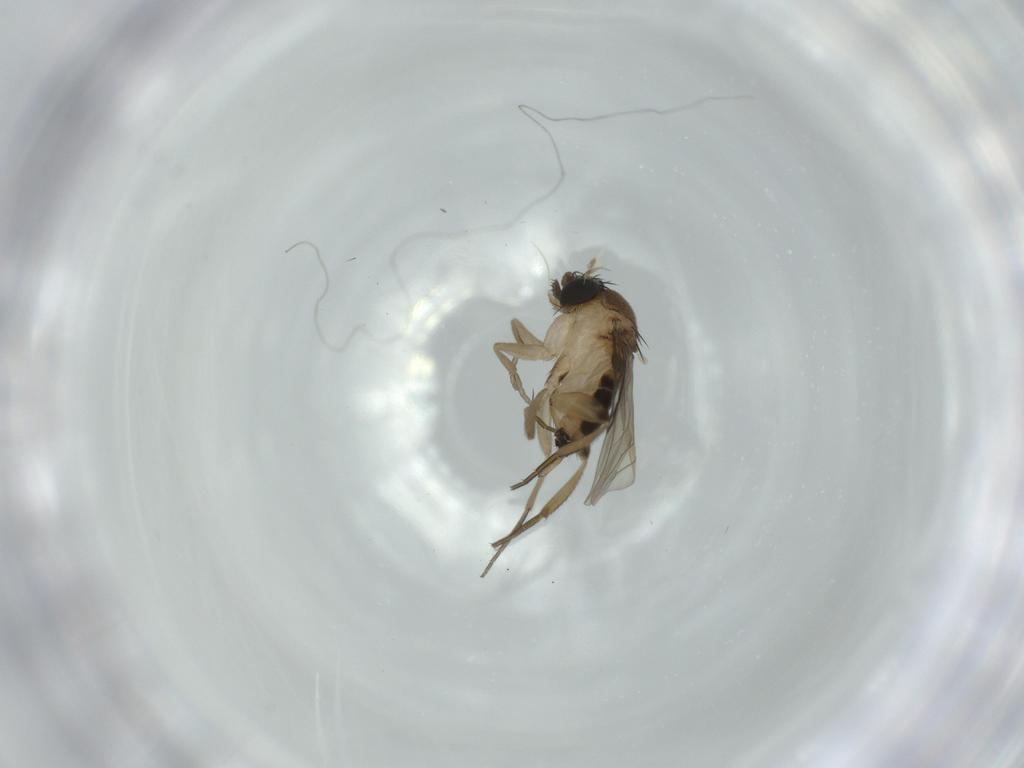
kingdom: Animalia
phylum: Arthropoda
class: Insecta
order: Diptera
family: Phoridae
